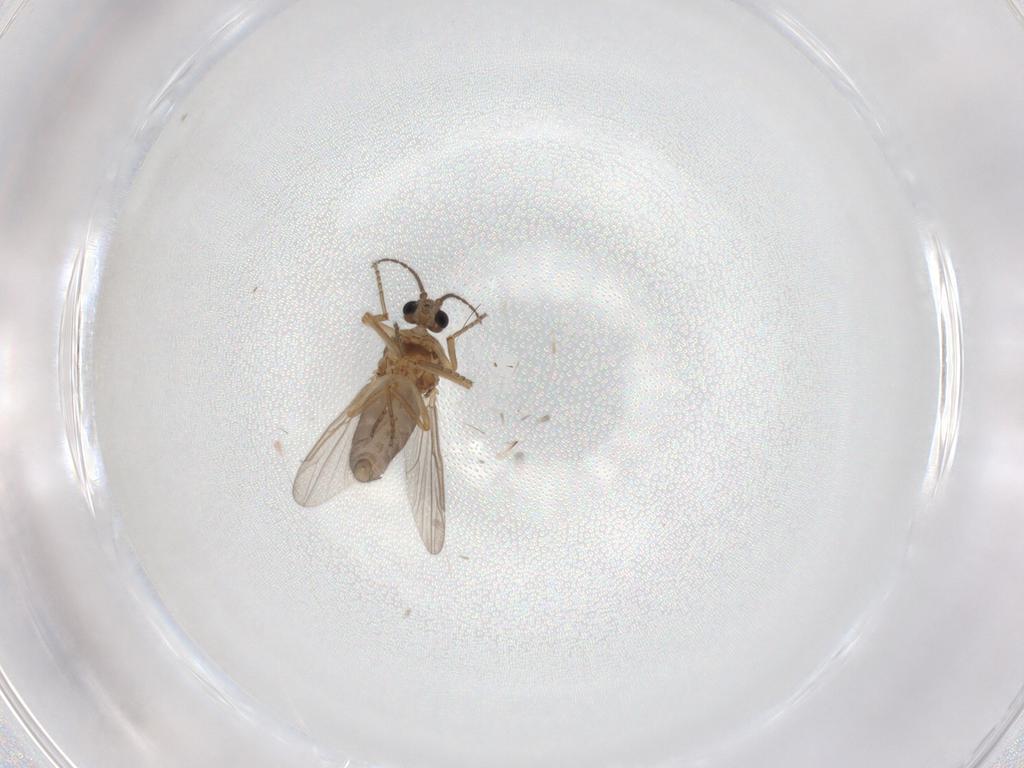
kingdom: Animalia
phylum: Arthropoda
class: Insecta
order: Diptera
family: Ceratopogonidae
